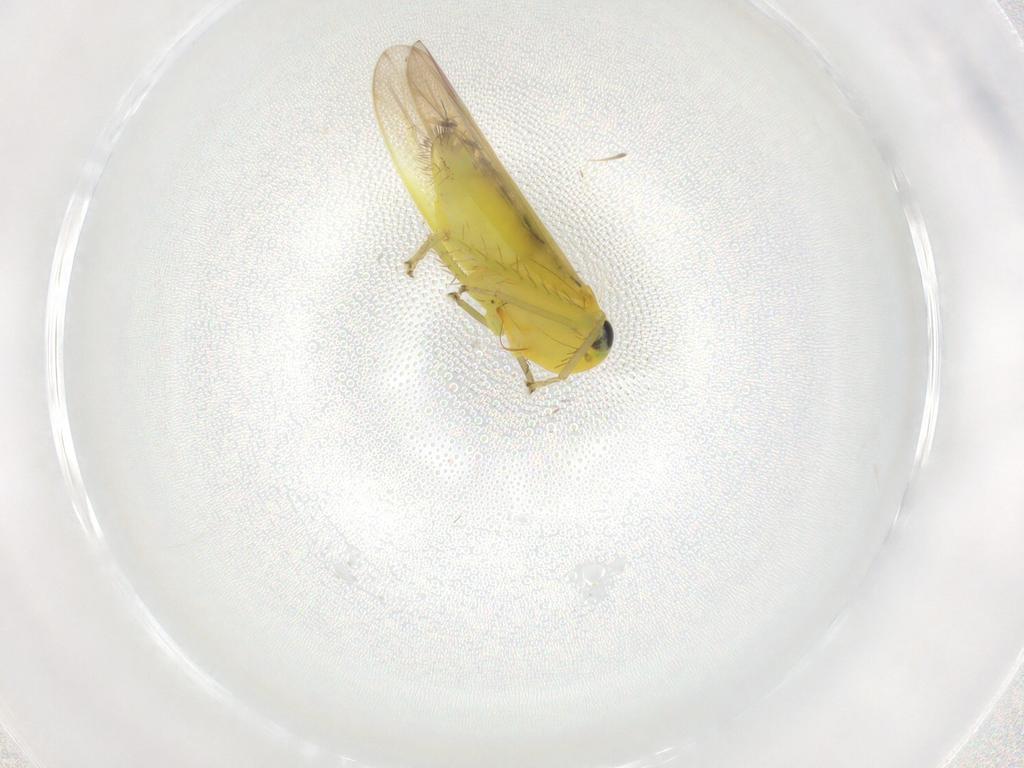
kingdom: Animalia
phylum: Arthropoda
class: Insecta
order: Hemiptera
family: Cicadellidae
